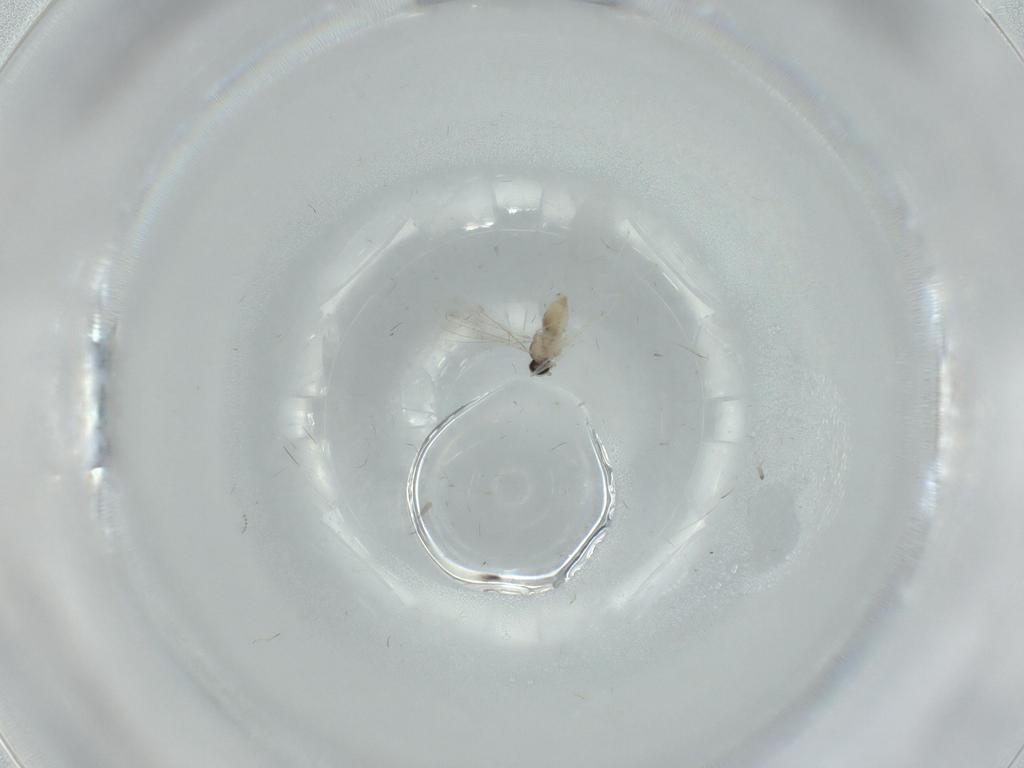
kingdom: Animalia
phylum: Arthropoda
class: Insecta
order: Diptera
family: Cecidomyiidae
